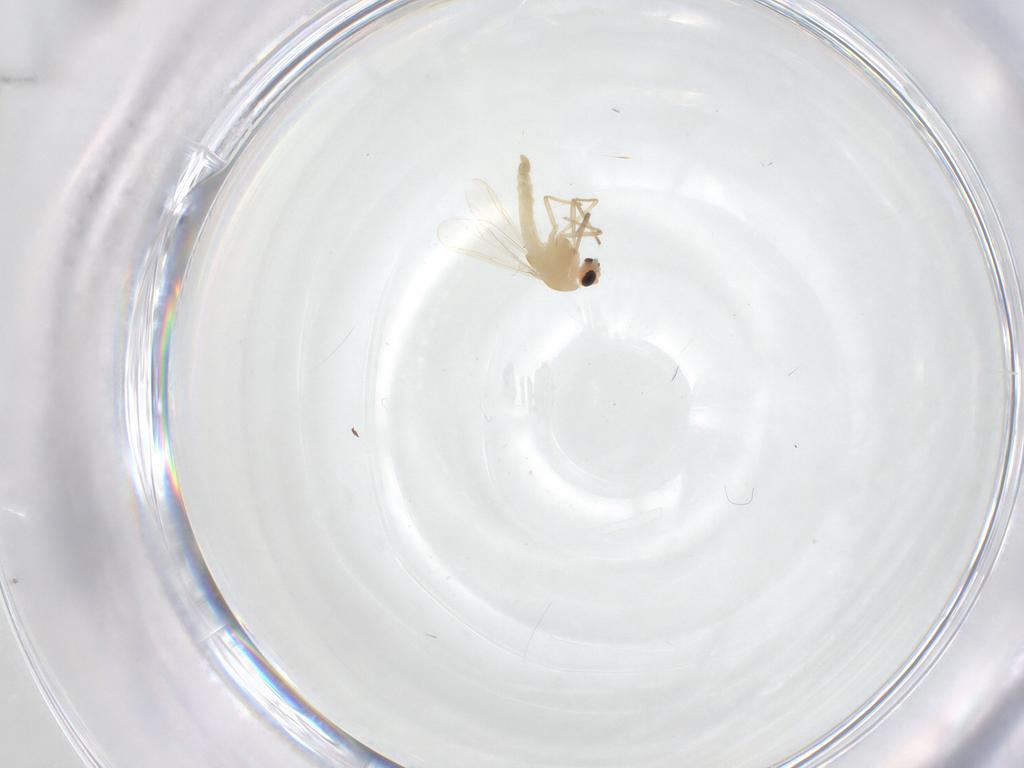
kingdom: Animalia
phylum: Arthropoda
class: Insecta
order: Diptera
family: Chironomidae
